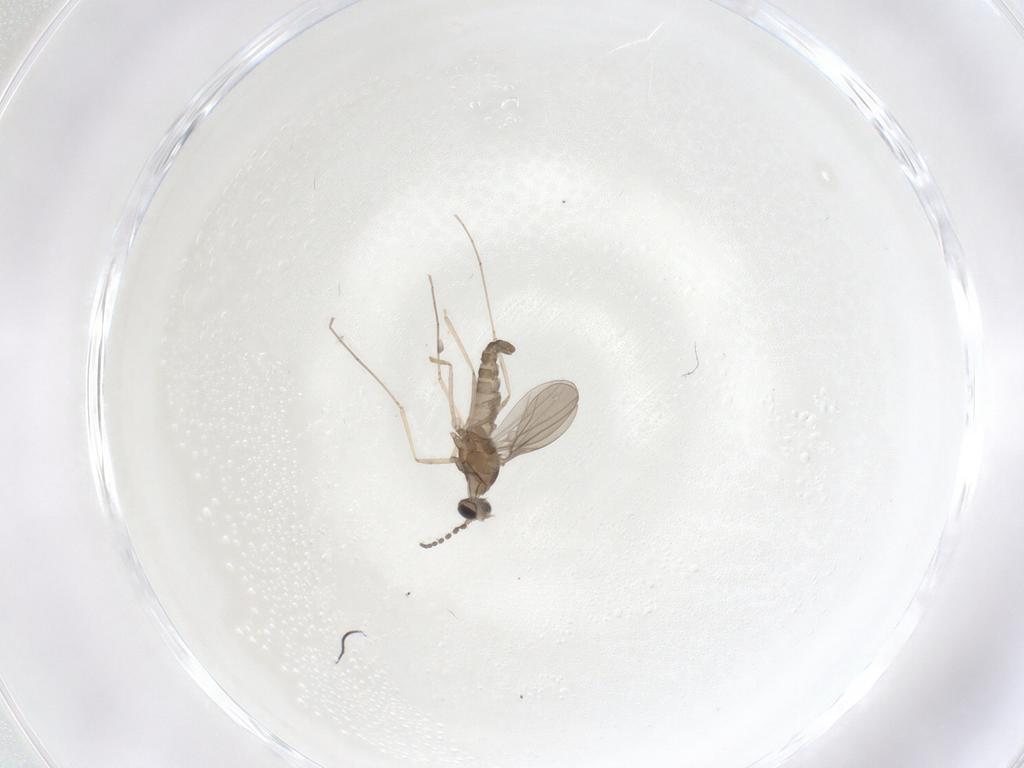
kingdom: Animalia
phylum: Arthropoda
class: Insecta
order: Diptera
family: Cecidomyiidae
